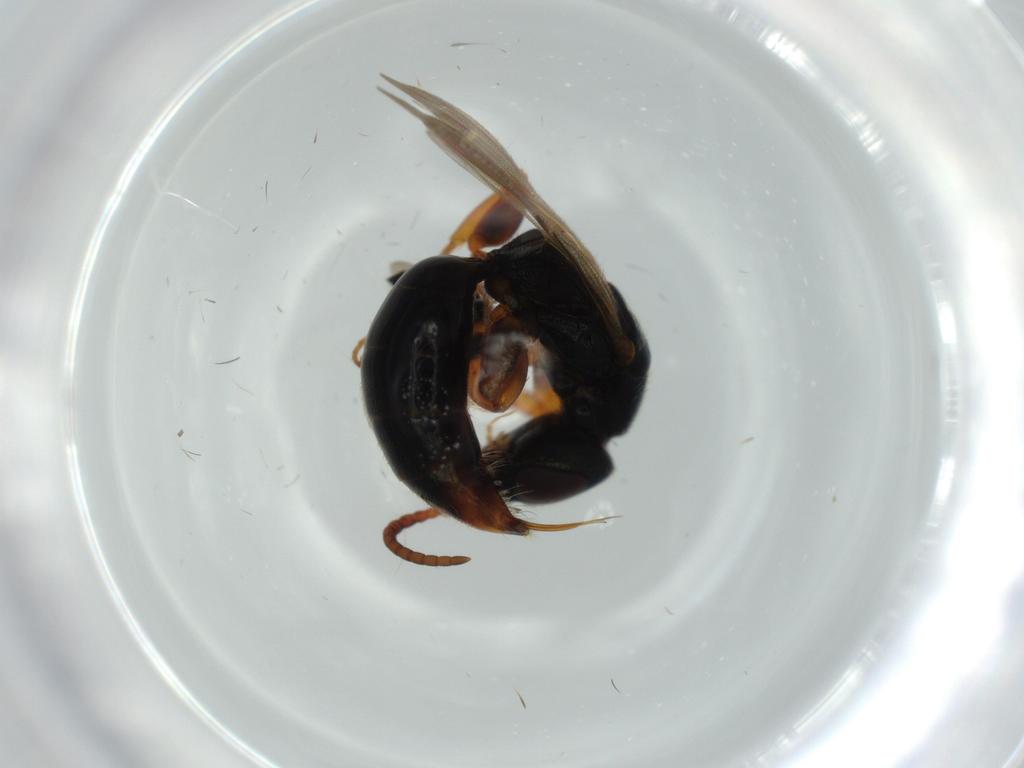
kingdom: Animalia
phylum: Arthropoda
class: Insecta
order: Hymenoptera
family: Bethylidae
